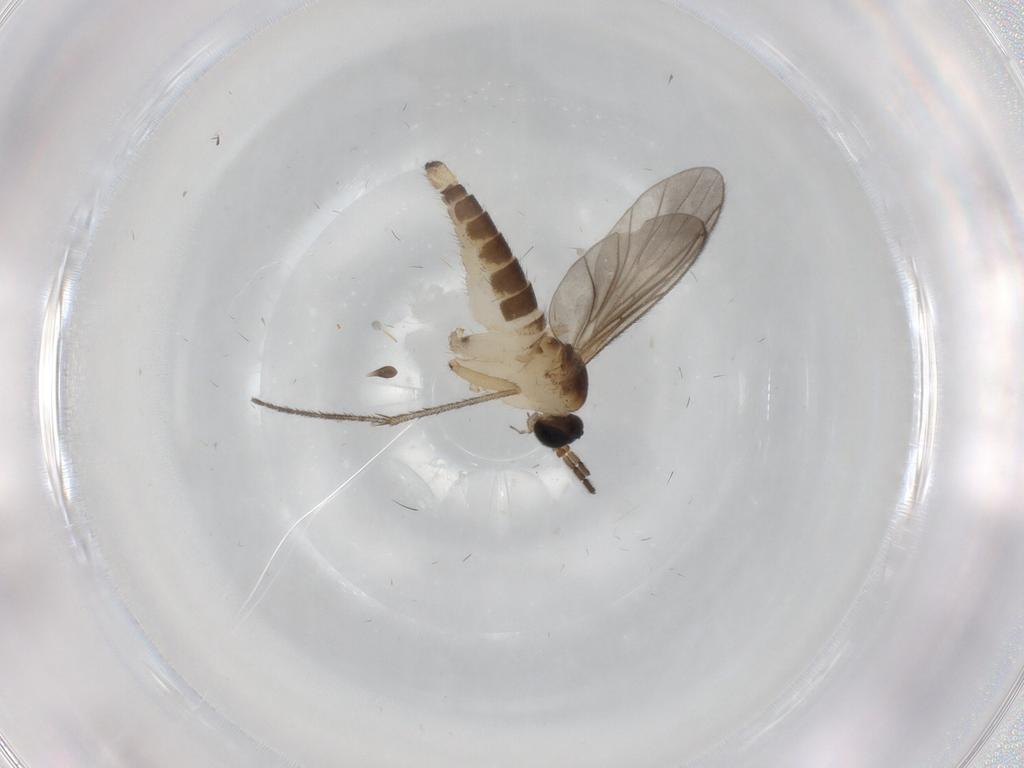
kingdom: Animalia
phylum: Arthropoda
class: Insecta
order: Diptera
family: Sciaridae
